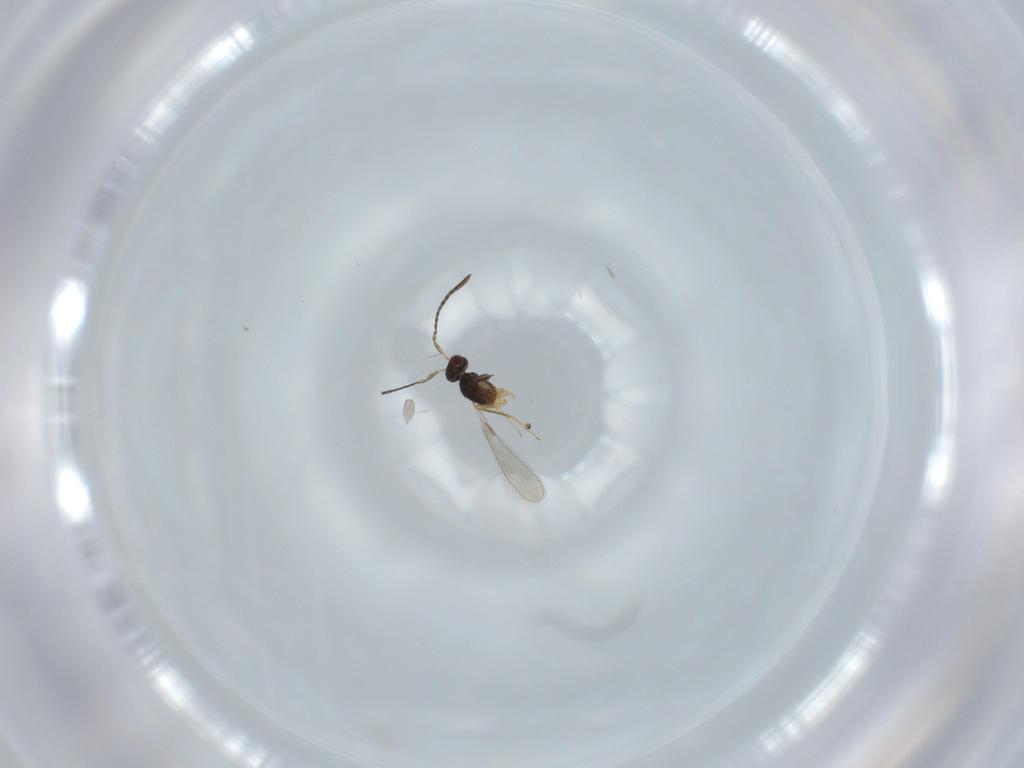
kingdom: Animalia
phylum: Arthropoda
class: Insecta
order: Hymenoptera
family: Mymaridae
